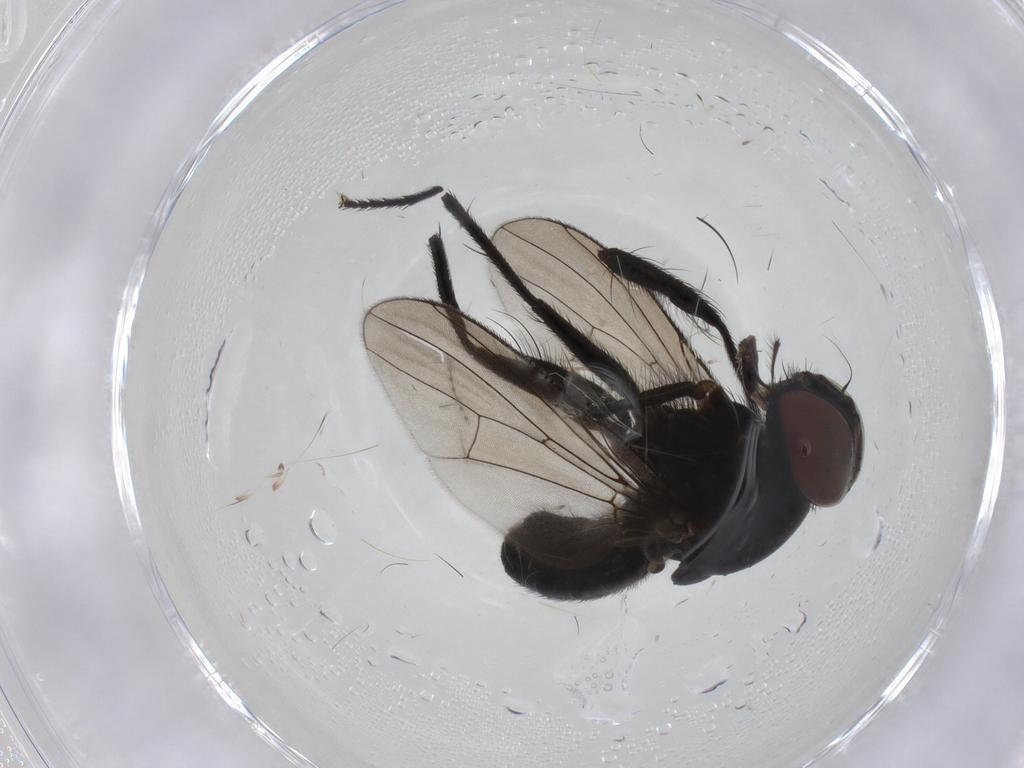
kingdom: Animalia
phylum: Arthropoda
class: Insecta
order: Diptera
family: Muscidae
